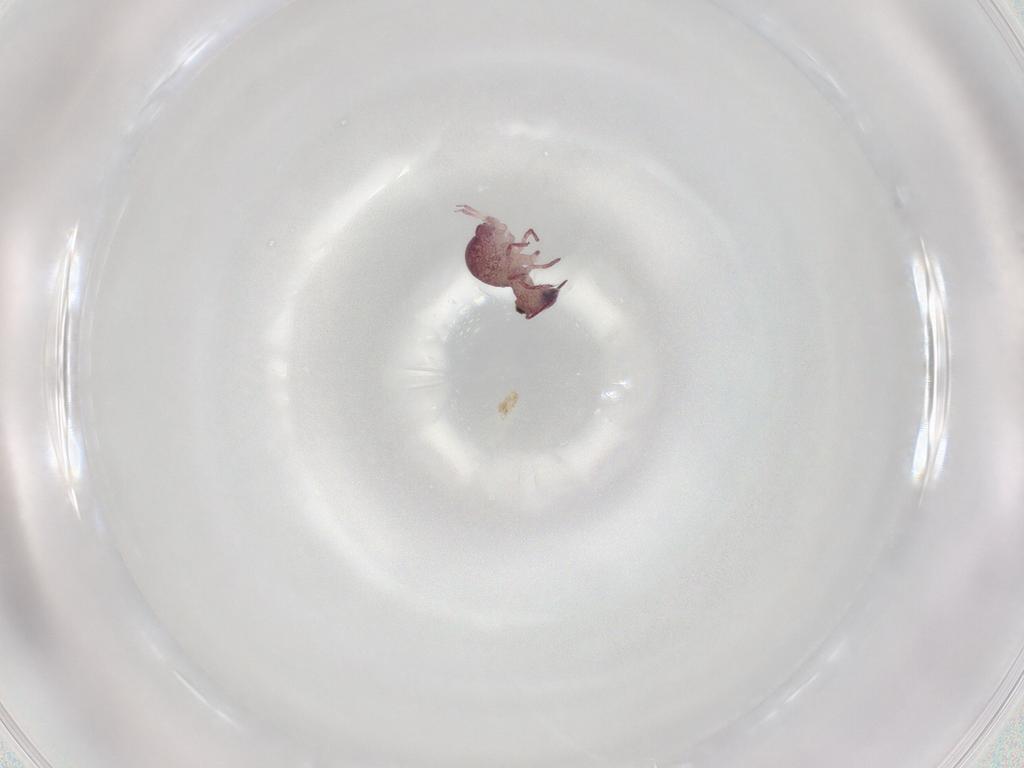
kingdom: Animalia
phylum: Arthropoda
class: Collembola
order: Symphypleona
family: Sminthurididae
